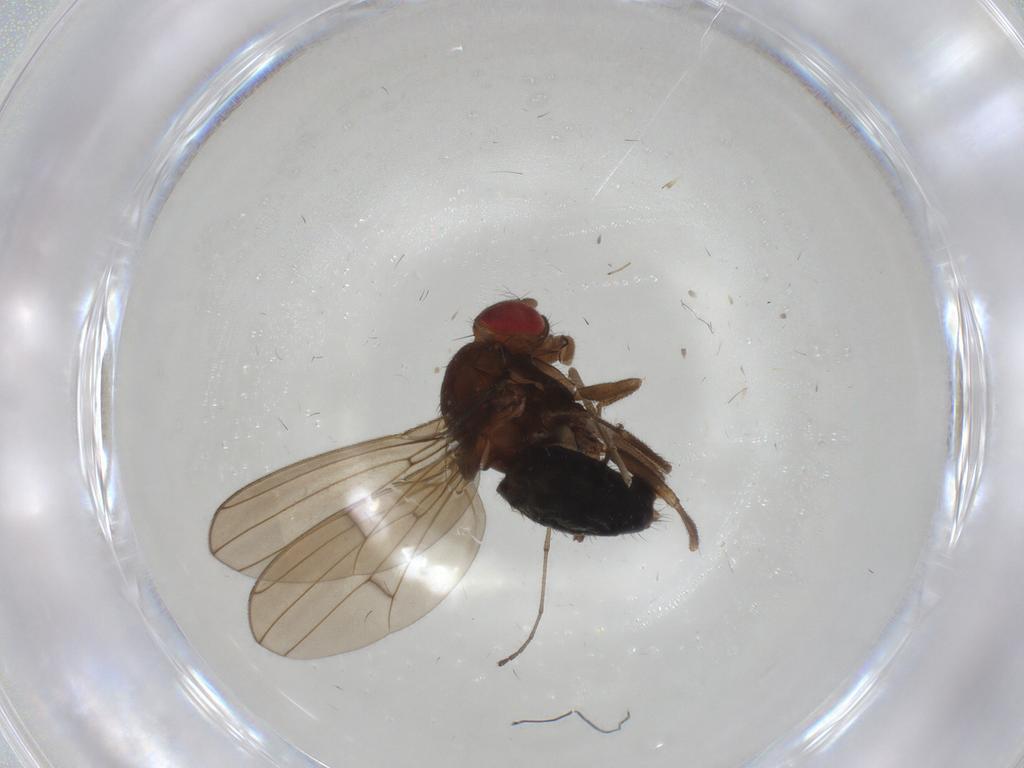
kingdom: Animalia
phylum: Arthropoda
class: Insecta
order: Diptera
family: Drosophilidae
